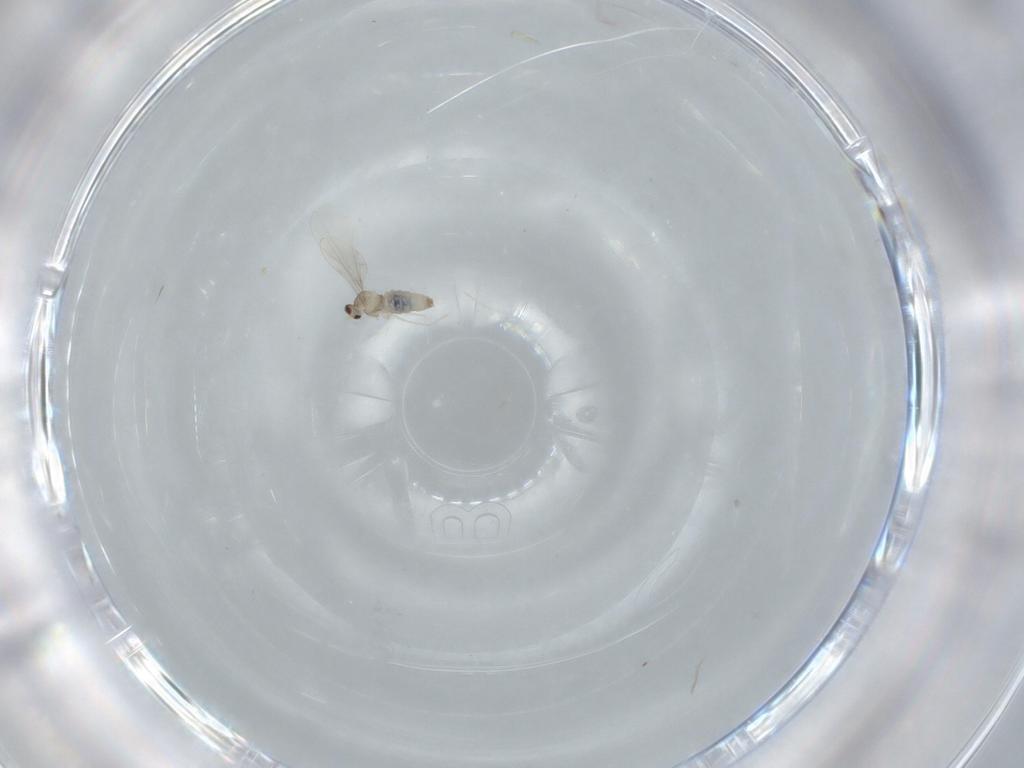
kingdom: Animalia
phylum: Arthropoda
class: Insecta
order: Diptera
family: Cecidomyiidae
